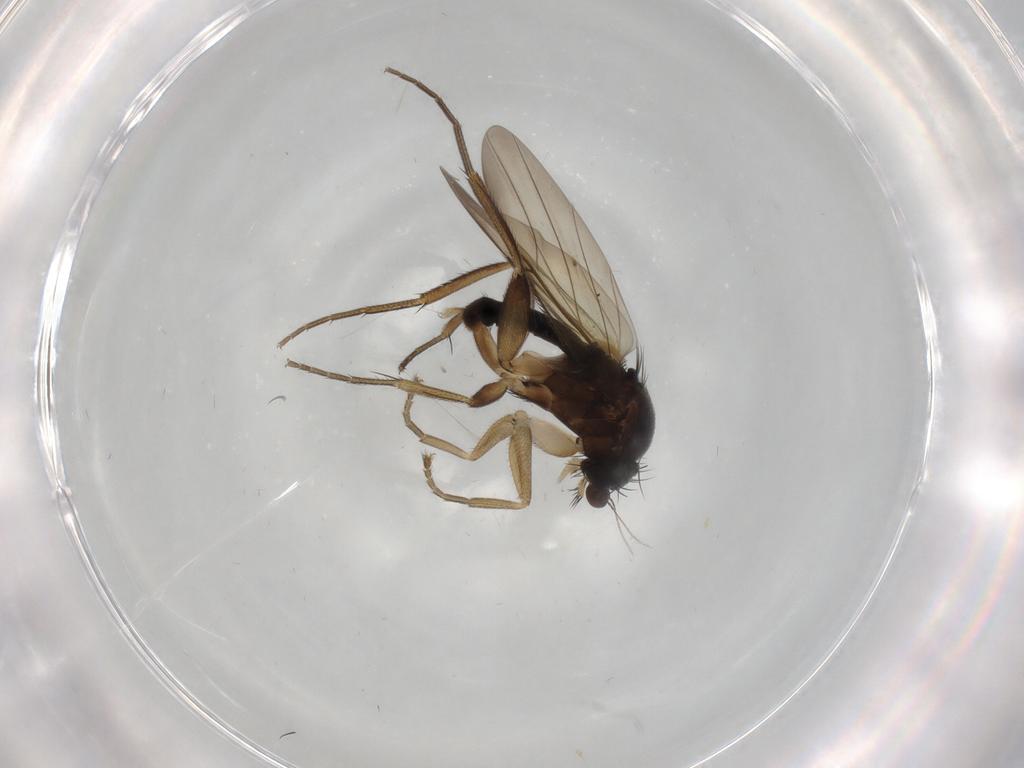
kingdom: Animalia
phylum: Arthropoda
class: Insecta
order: Diptera
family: Phoridae
